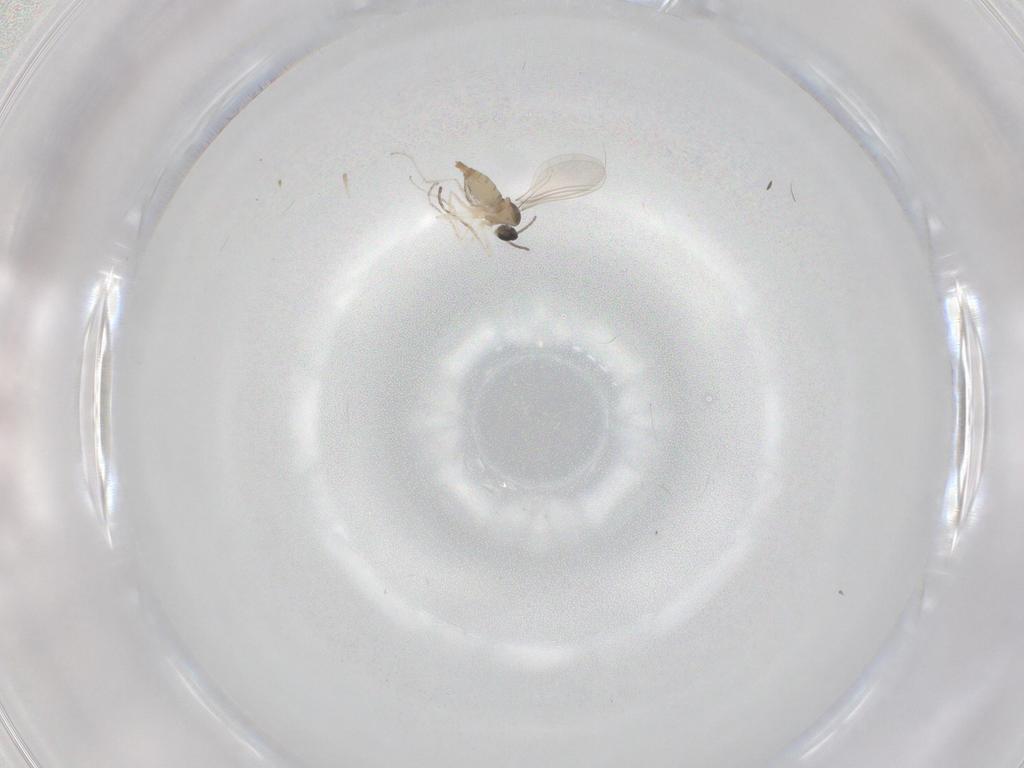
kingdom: Animalia
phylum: Arthropoda
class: Insecta
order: Diptera
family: Cecidomyiidae
